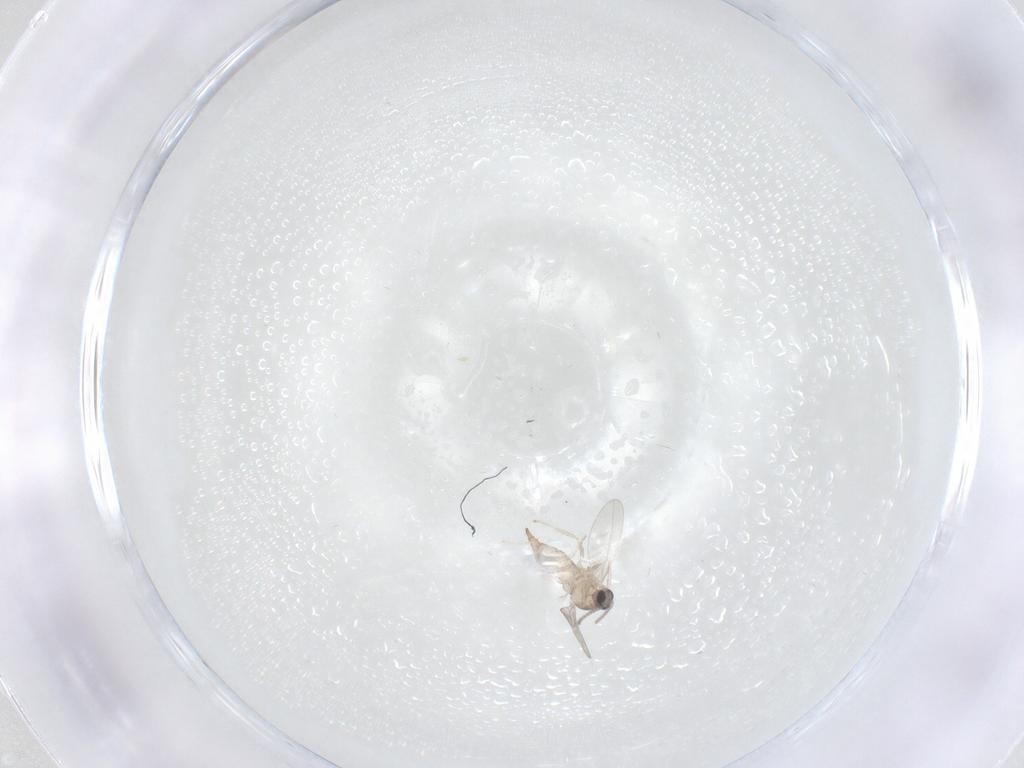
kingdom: Animalia
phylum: Arthropoda
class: Insecta
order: Diptera
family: Cecidomyiidae
